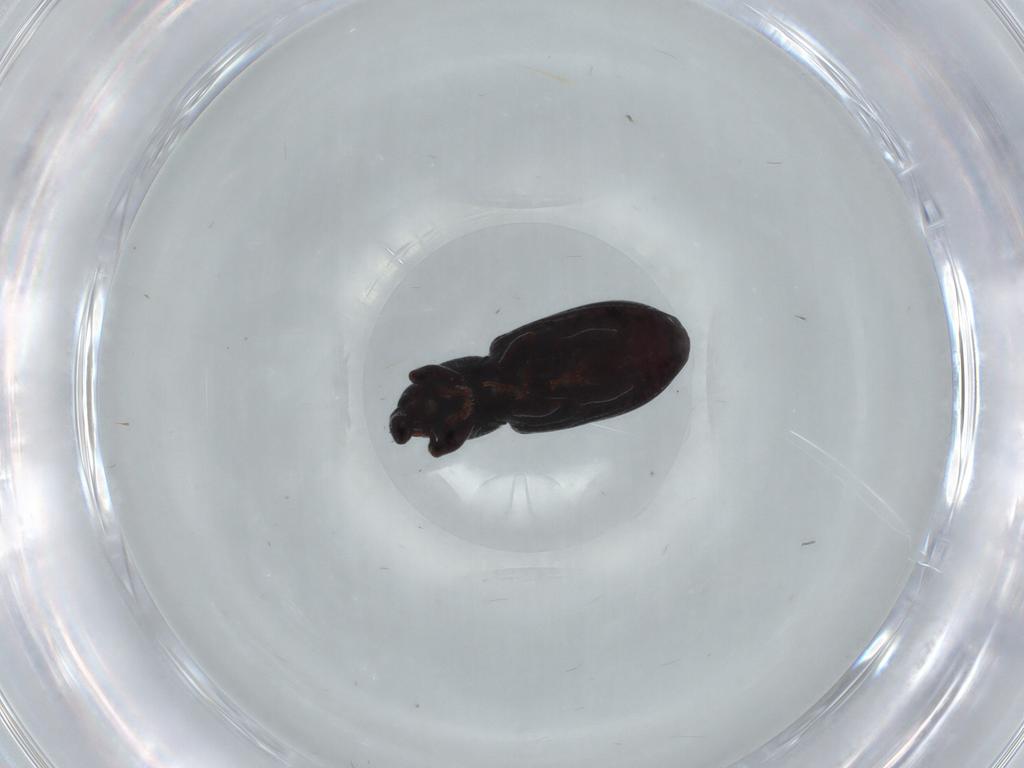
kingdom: Animalia
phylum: Arthropoda
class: Insecta
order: Coleoptera
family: Curculionidae
